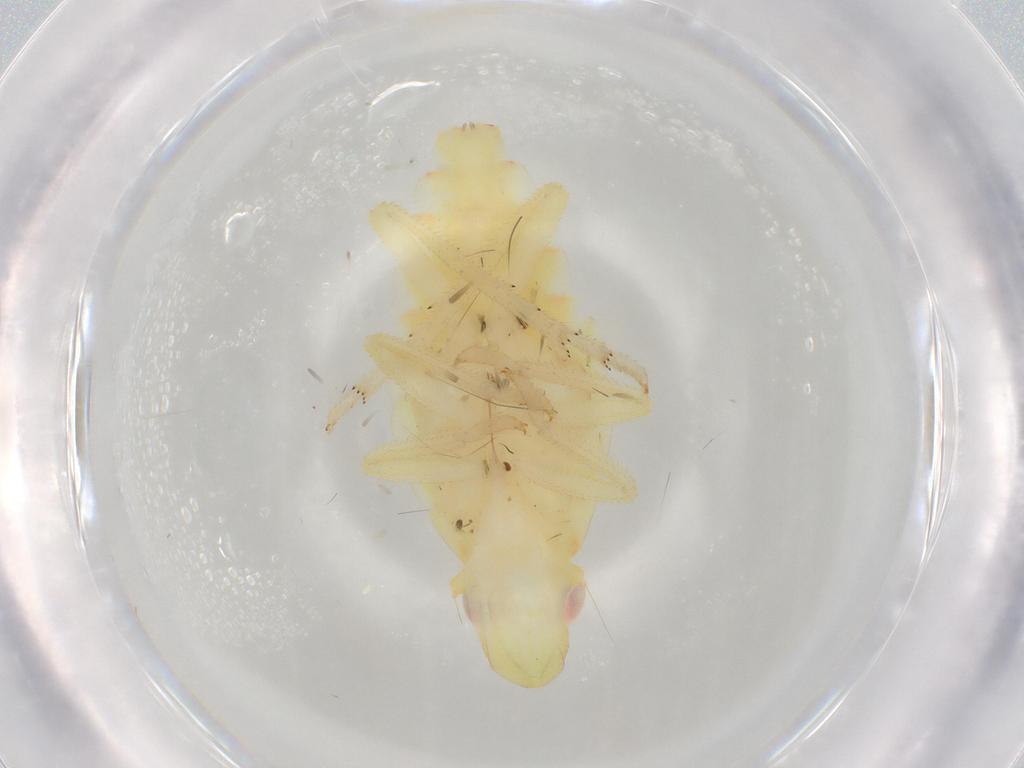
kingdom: Animalia
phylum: Arthropoda
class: Insecta
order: Hemiptera
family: Tropiduchidae
